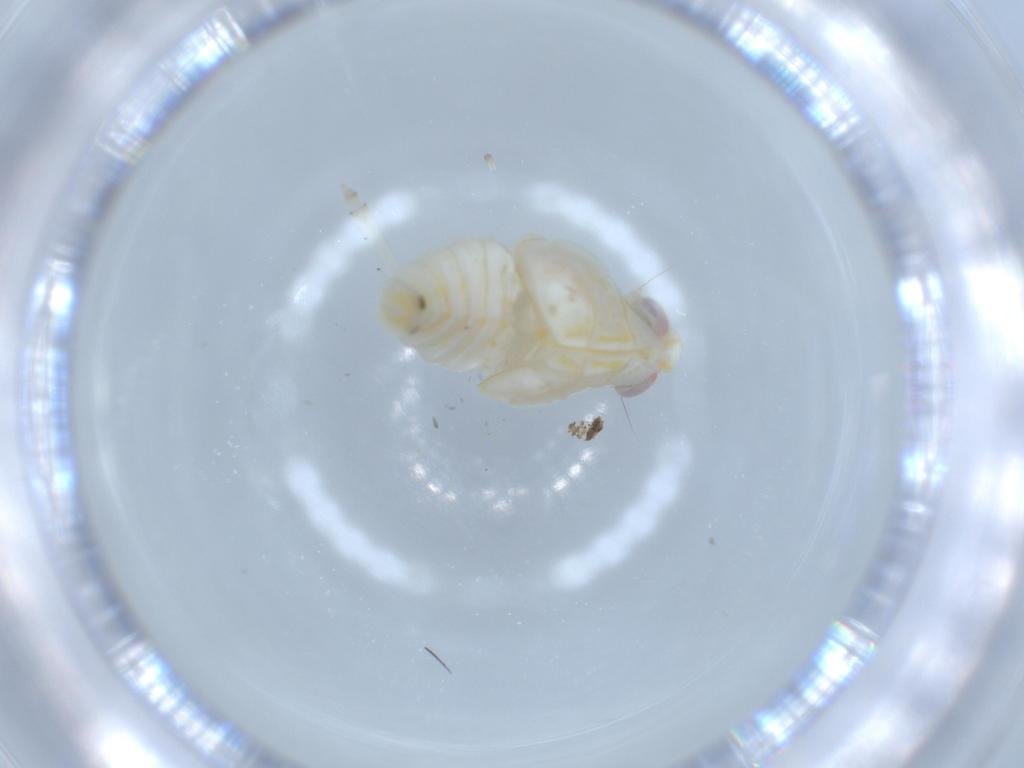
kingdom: Animalia
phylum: Arthropoda
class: Insecta
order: Hemiptera
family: Nogodinidae
